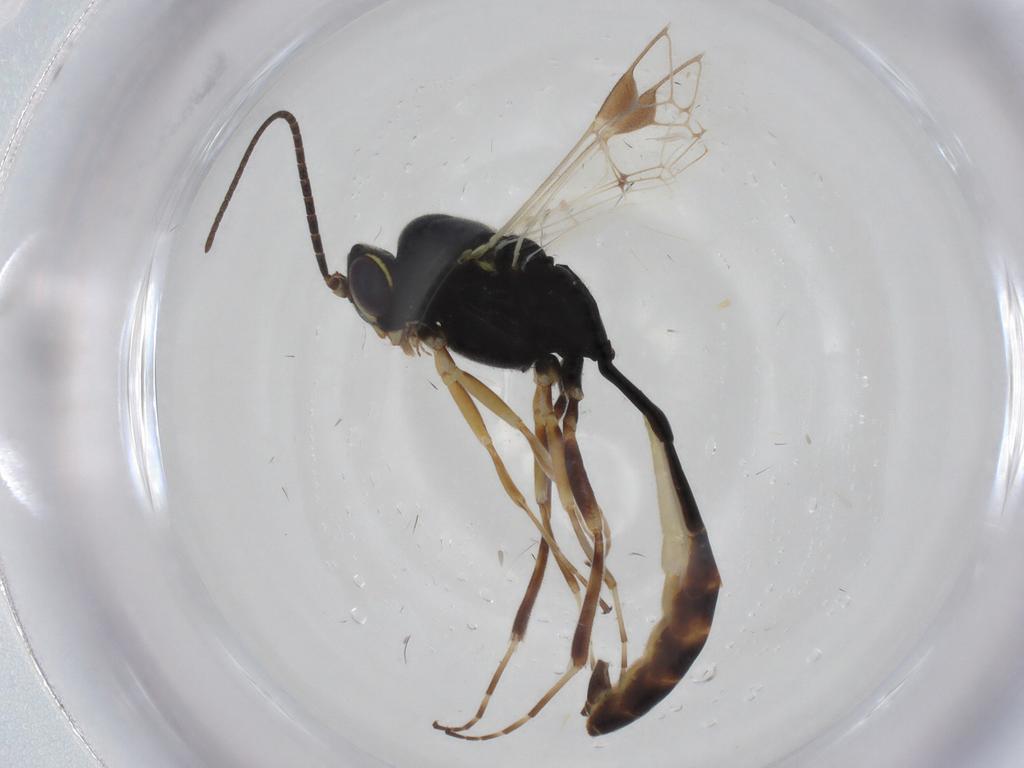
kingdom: Animalia
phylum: Arthropoda
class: Insecta
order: Hymenoptera
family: Ichneumonidae
